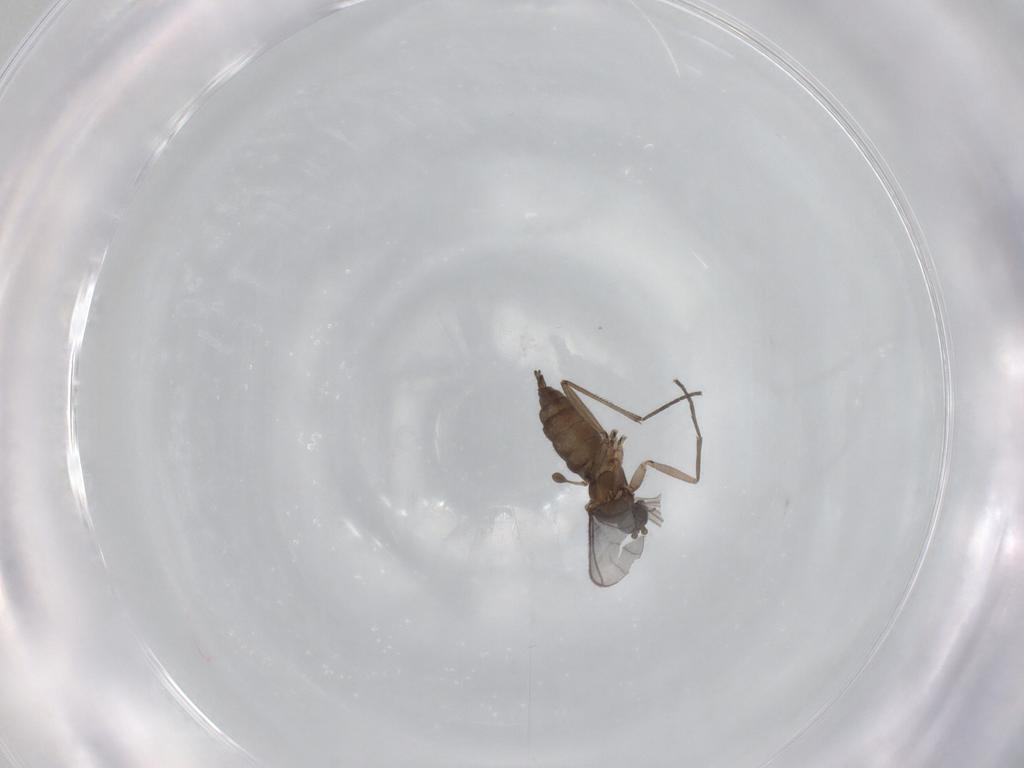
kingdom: Animalia
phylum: Arthropoda
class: Insecta
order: Diptera
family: Sciaridae
